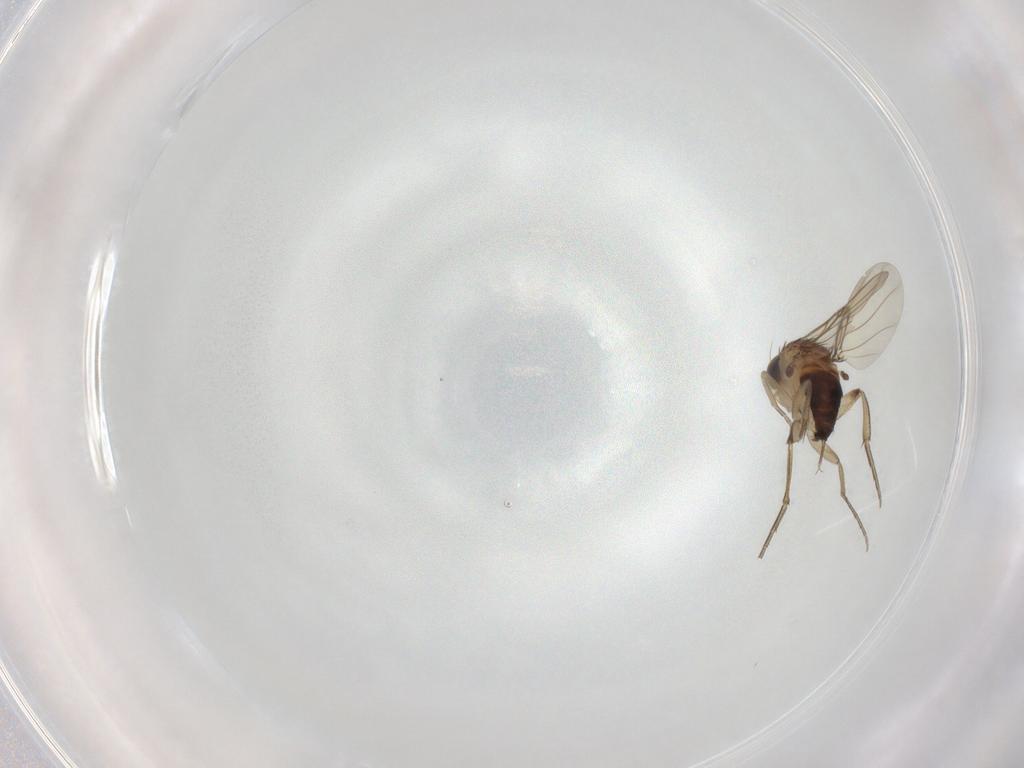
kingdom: Animalia
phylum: Arthropoda
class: Insecta
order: Diptera
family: Phoridae
